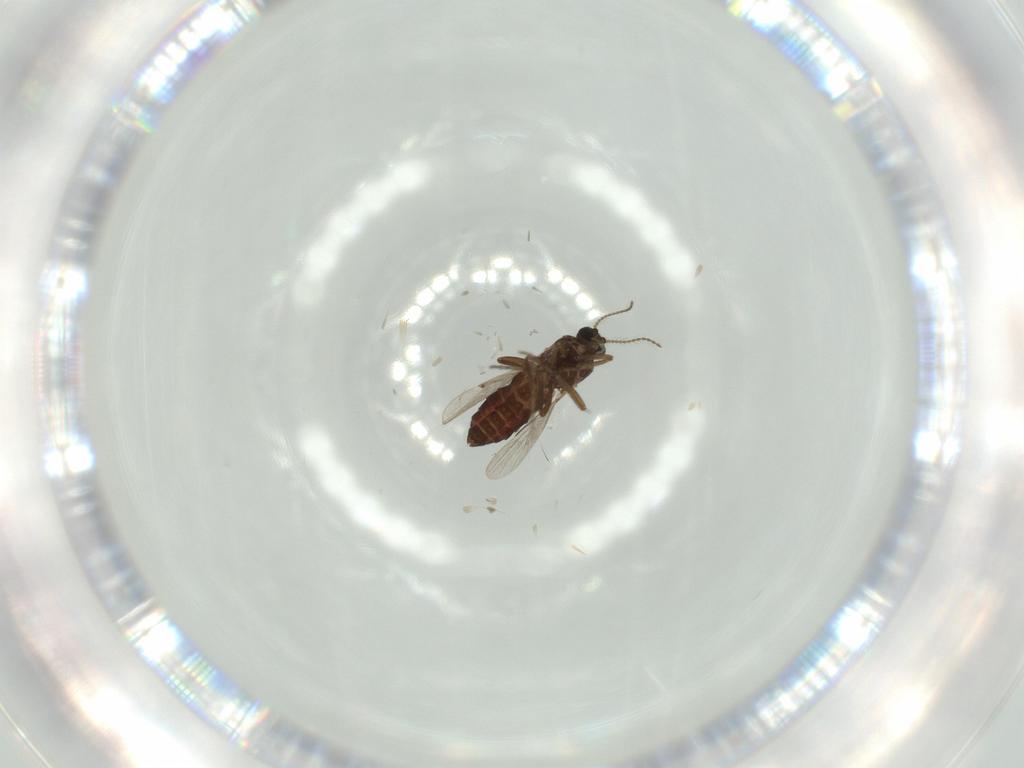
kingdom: Animalia
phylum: Arthropoda
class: Insecta
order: Diptera
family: Ceratopogonidae
